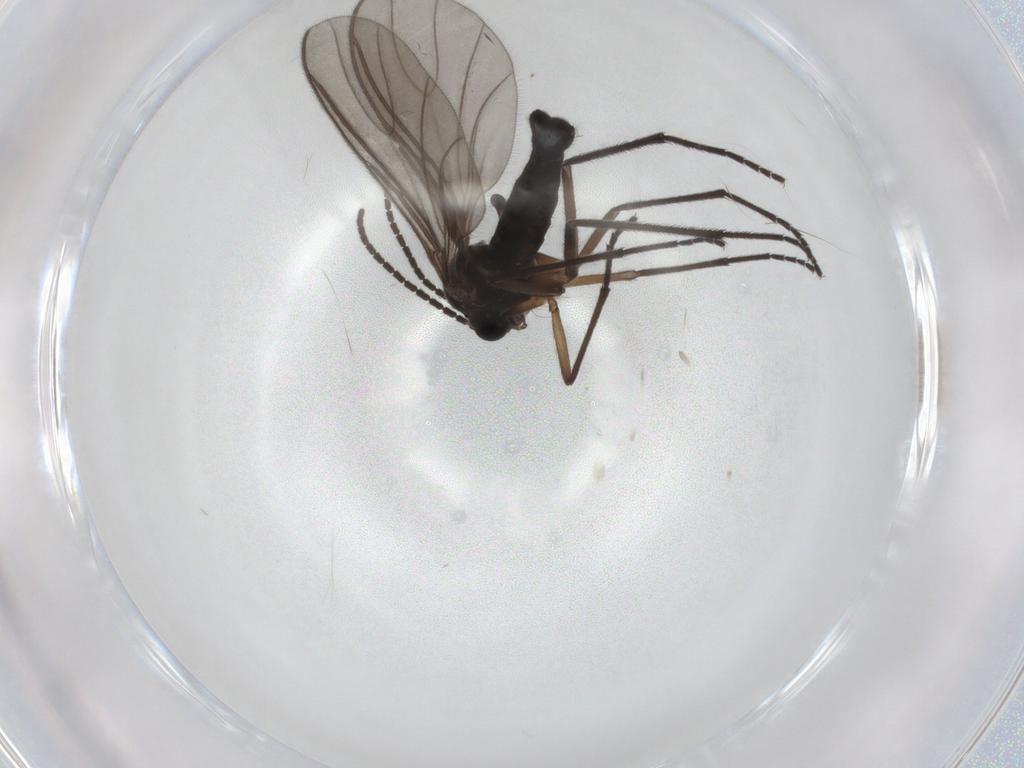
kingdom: Animalia
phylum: Arthropoda
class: Insecta
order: Diptera
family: Sciaridae
